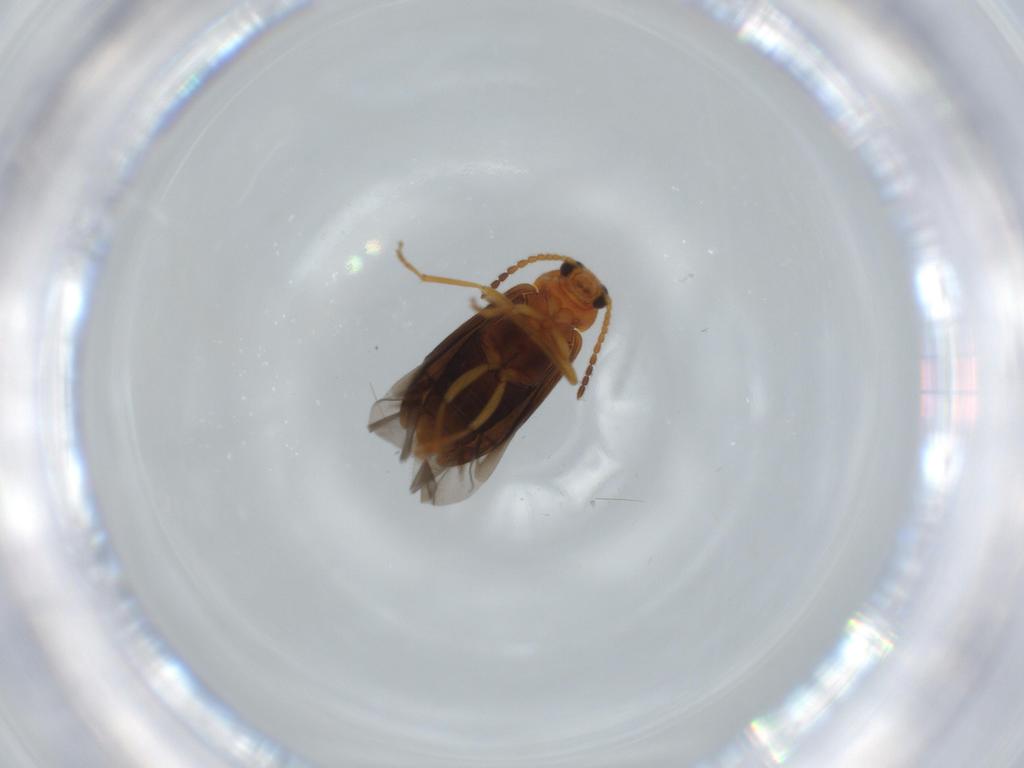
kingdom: Animalia
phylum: Arthropoda
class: Insecta
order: Coleoptera
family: Melandryidae
